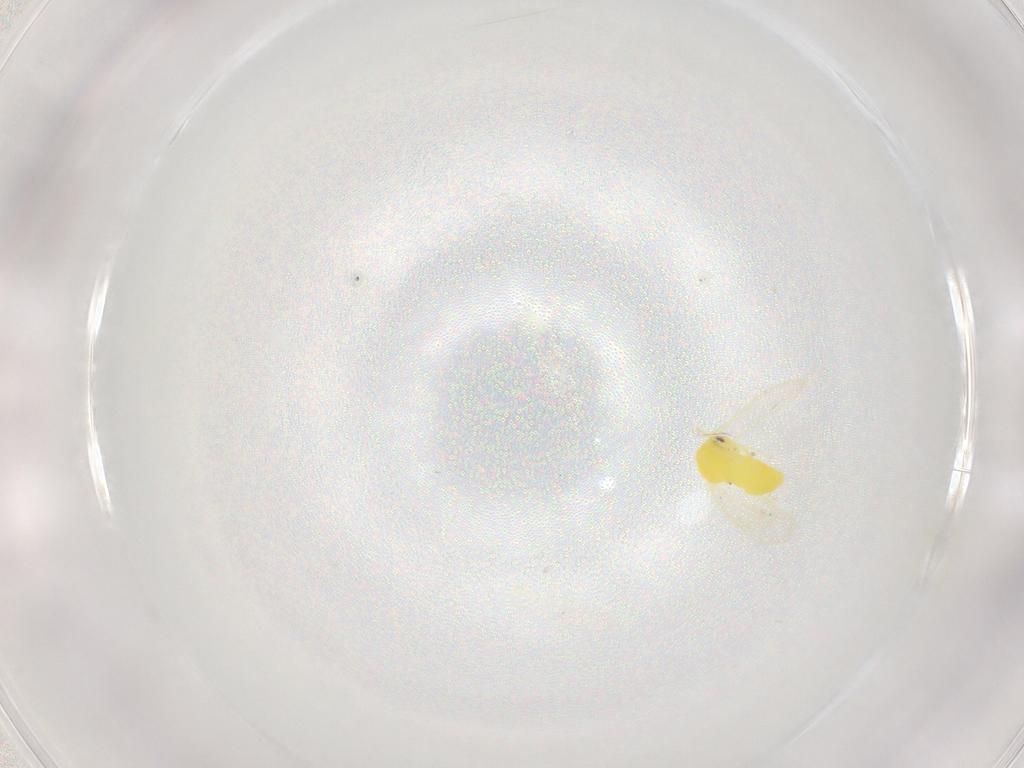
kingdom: Animalia
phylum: Arthropoda
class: Insecta
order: Hemiptera
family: Aleyrodidae
